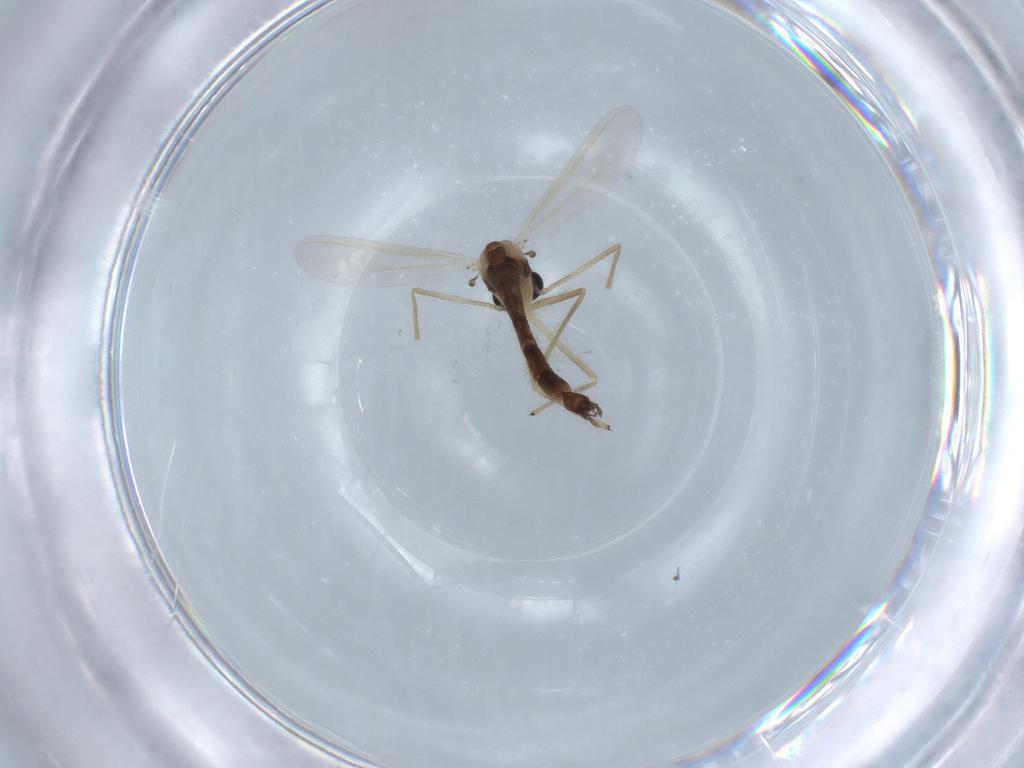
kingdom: Animalia
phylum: Arthropoda
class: Insecta
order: Diptera
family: Chironomidae
